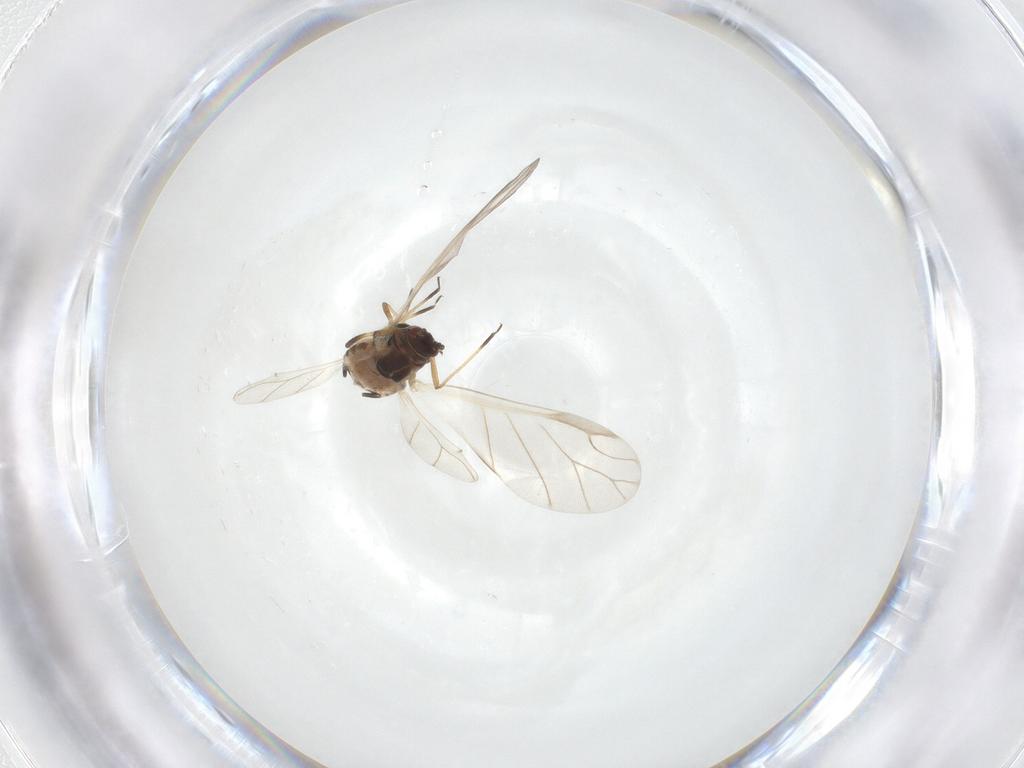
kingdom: Animalia
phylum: Arthropoda
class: Insecta
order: Hemiptera
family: Aphididae
